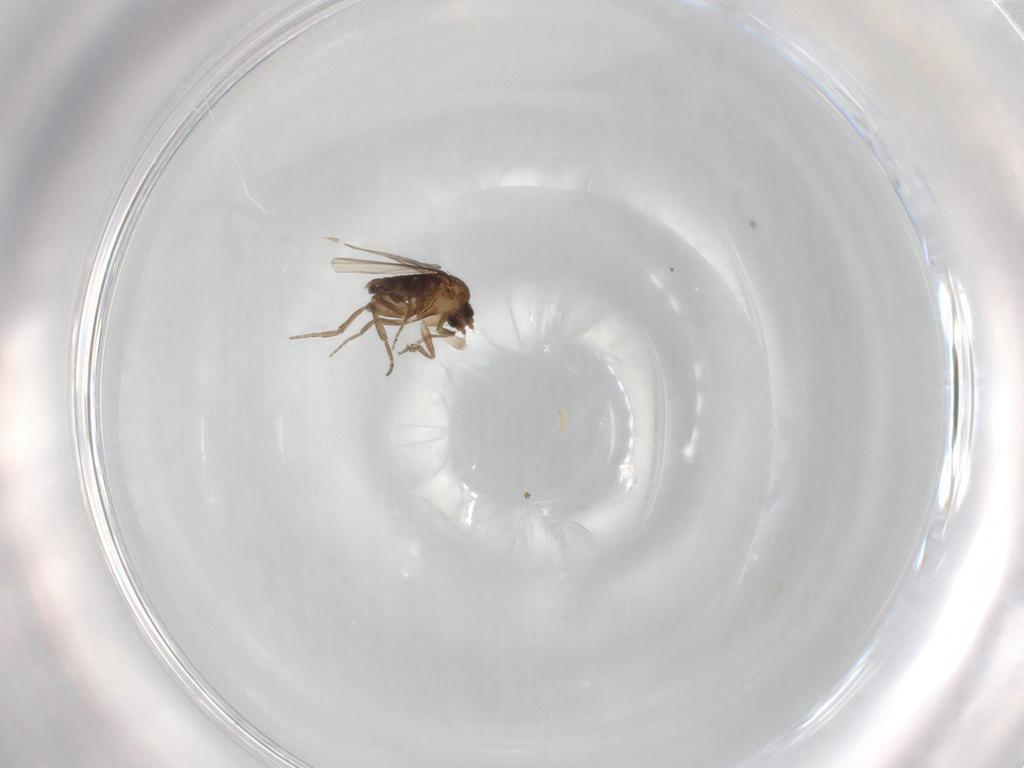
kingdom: Animalia
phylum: Arthropoda
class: Insecta
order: Diptera
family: Phoridae
